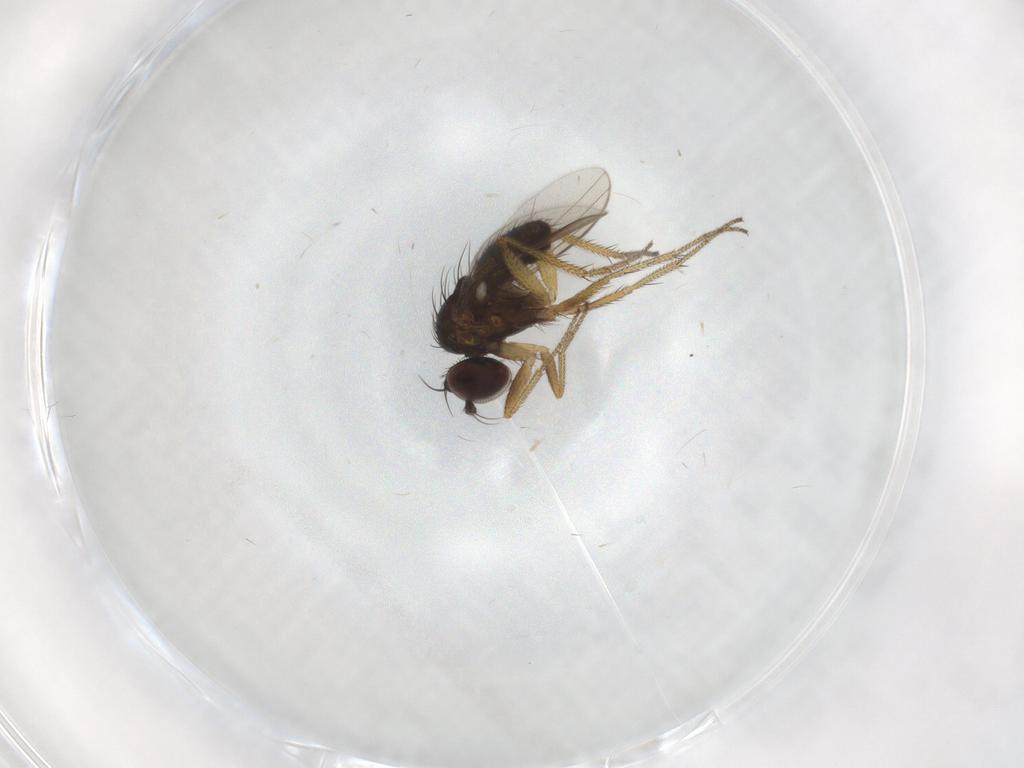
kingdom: Animalia
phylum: Arthropoda
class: Insecta
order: Diptera
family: Dolichopodidae
